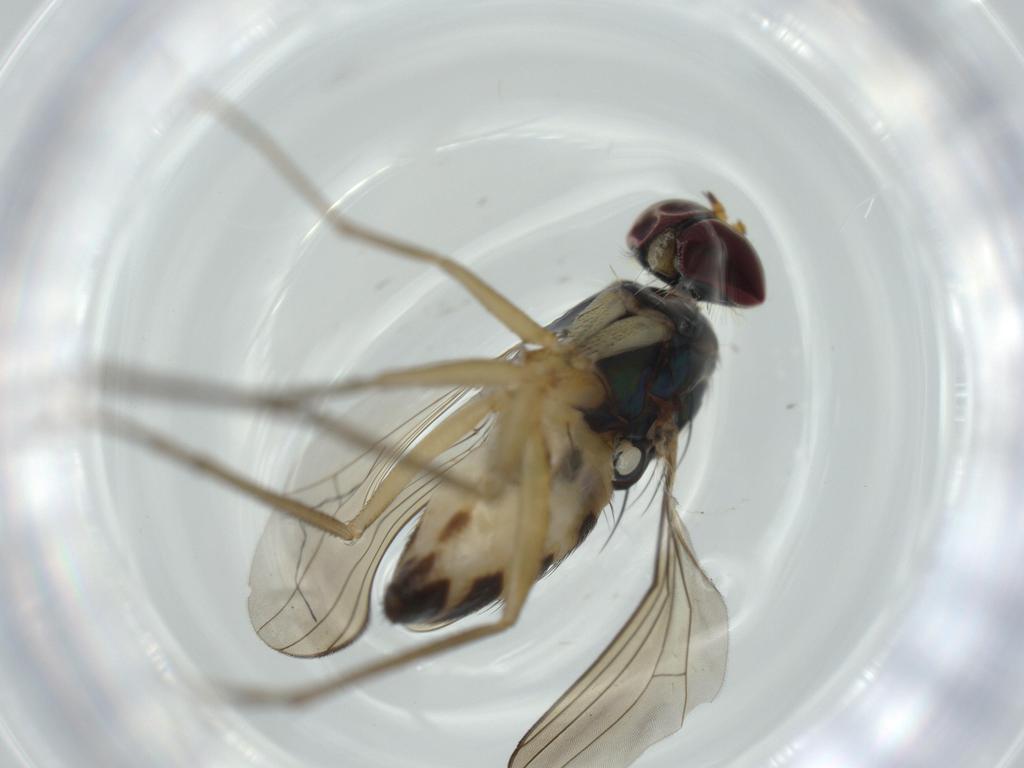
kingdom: Animalia
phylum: Arthropoda
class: Insecta
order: Diptera
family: Dolichopodidae
